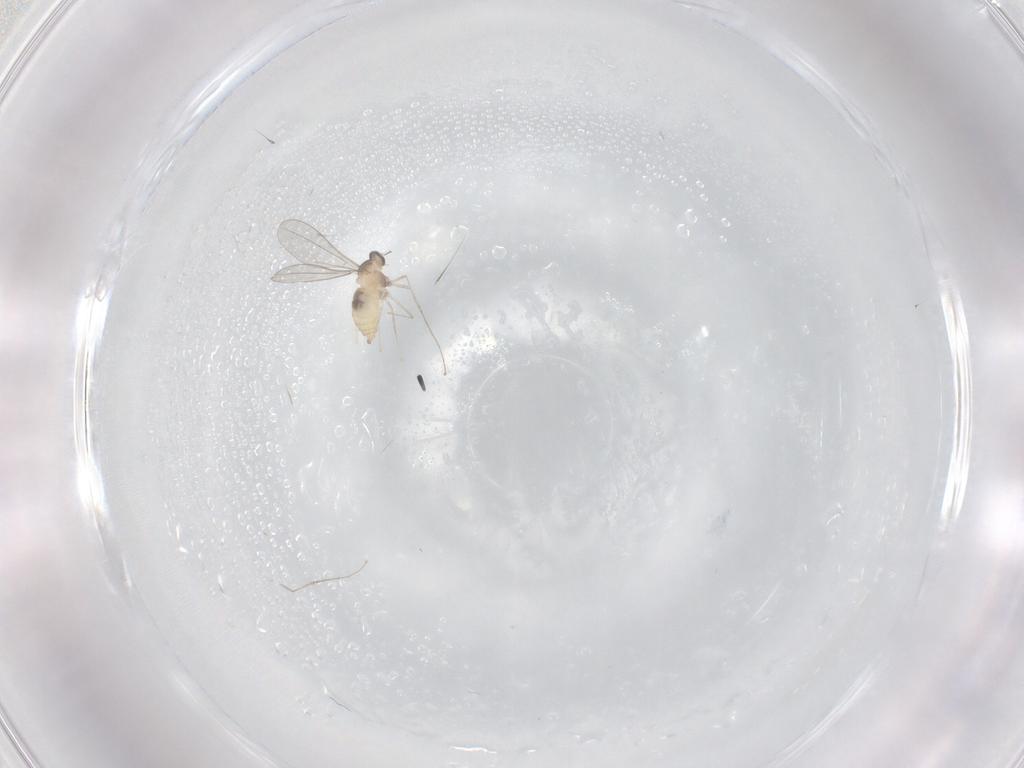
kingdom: Animalia
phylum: Arthropoda
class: Insecta
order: Diptera
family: Cecidomyiidae
